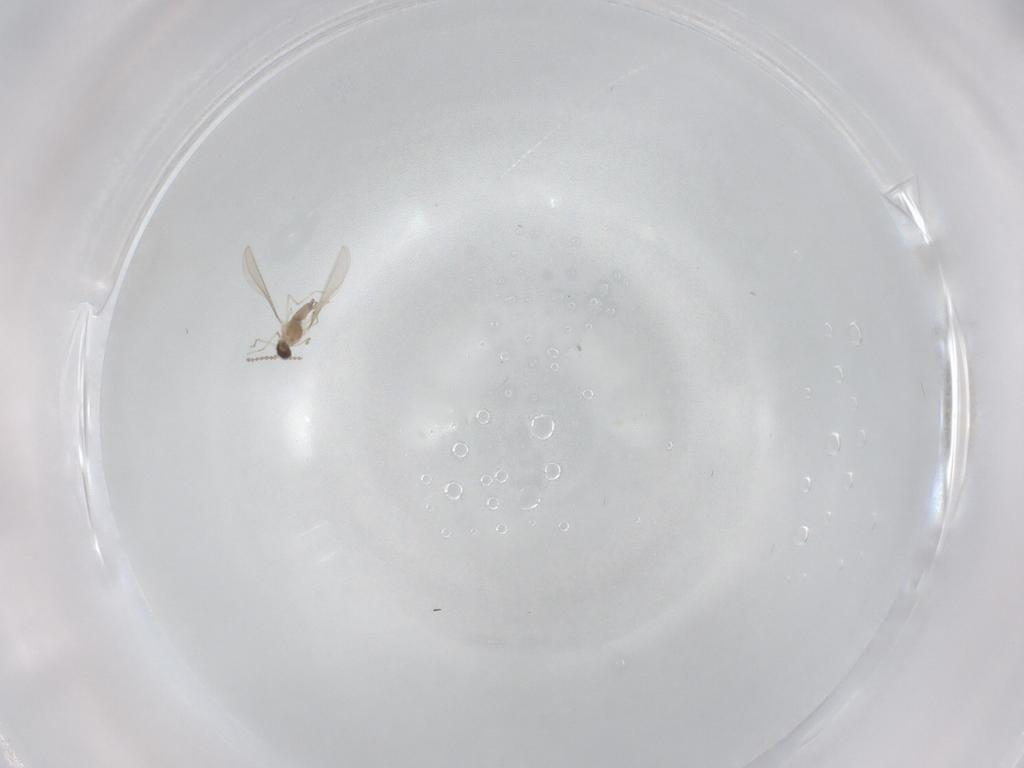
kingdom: Animalia
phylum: Arthropoda
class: Insecta
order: Diptera
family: Cecidomyiidae
